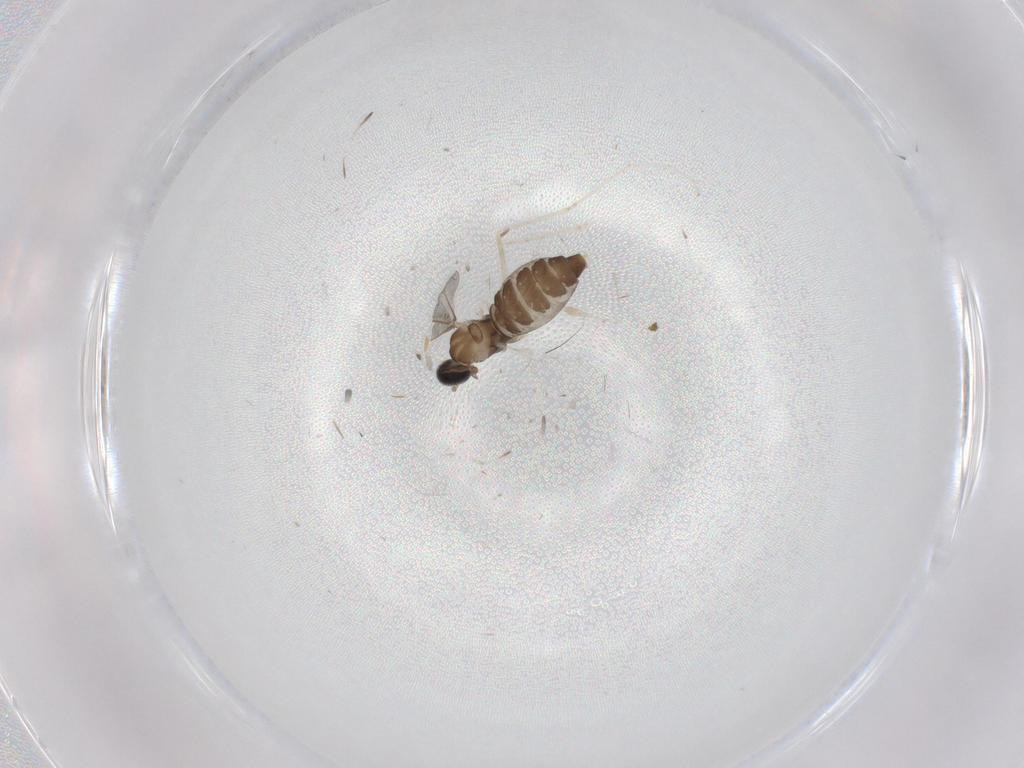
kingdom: Animalia
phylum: Arthropoda
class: Insecta
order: Diptera
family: Cecidomyiidae
